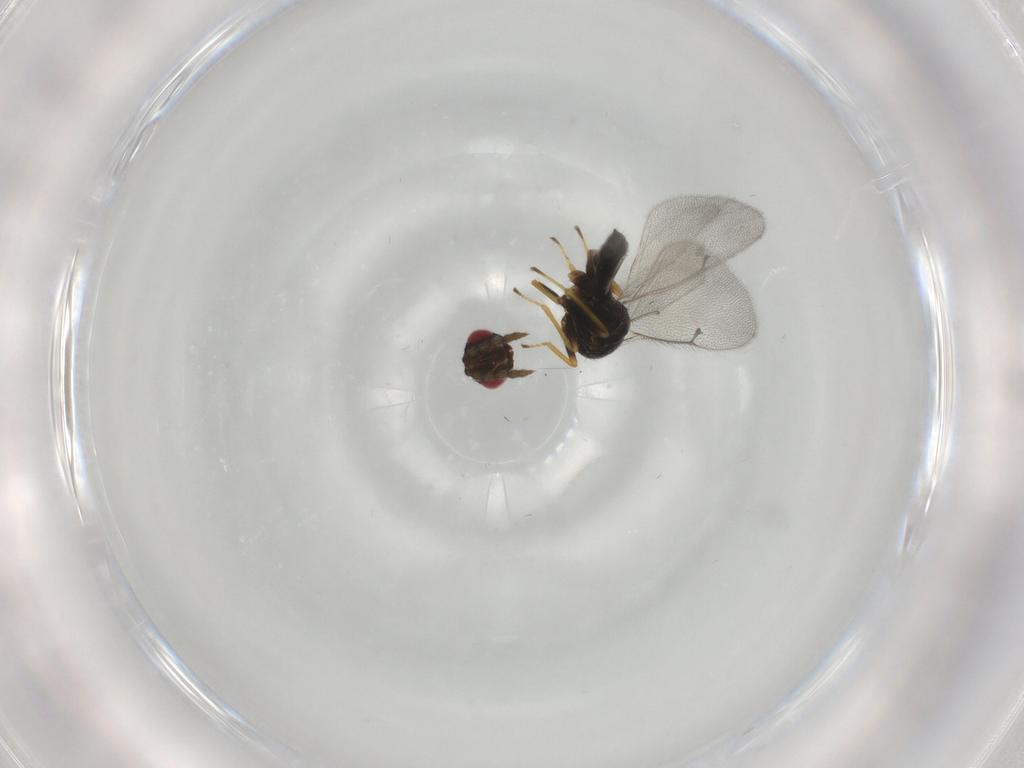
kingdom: Animalia
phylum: Arthropoda
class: Insecta
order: Hymenoptera
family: Eulophidae
